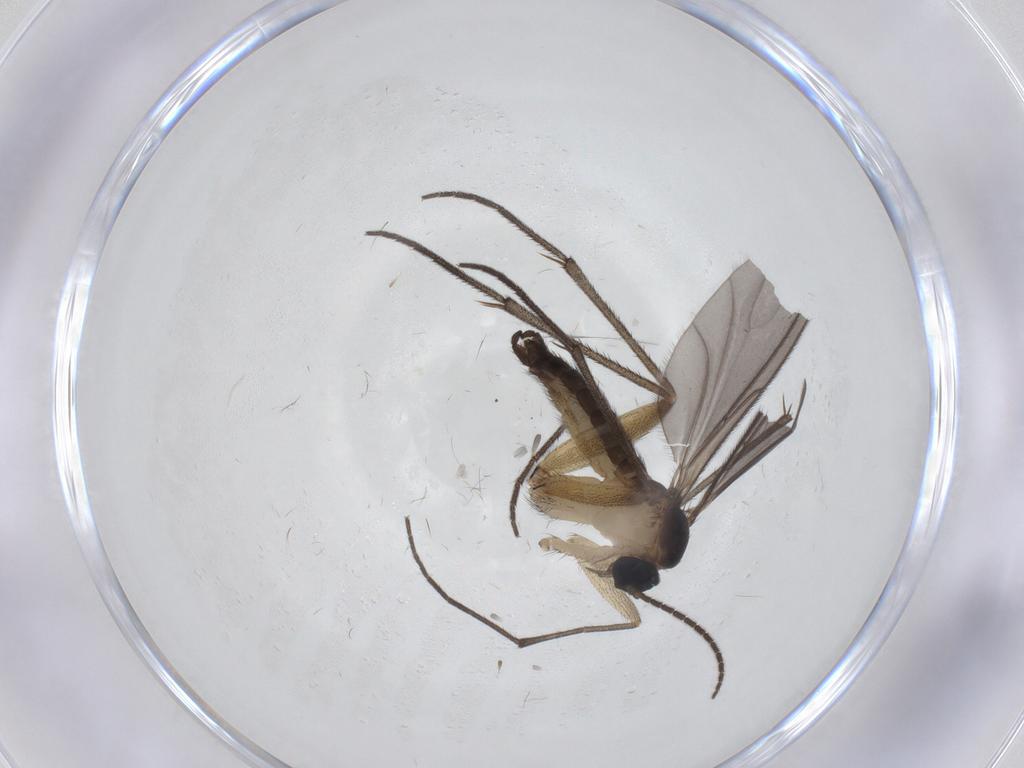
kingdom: Animalia
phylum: Arthropoda
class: Insecta
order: Diptera
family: Sciaridae
